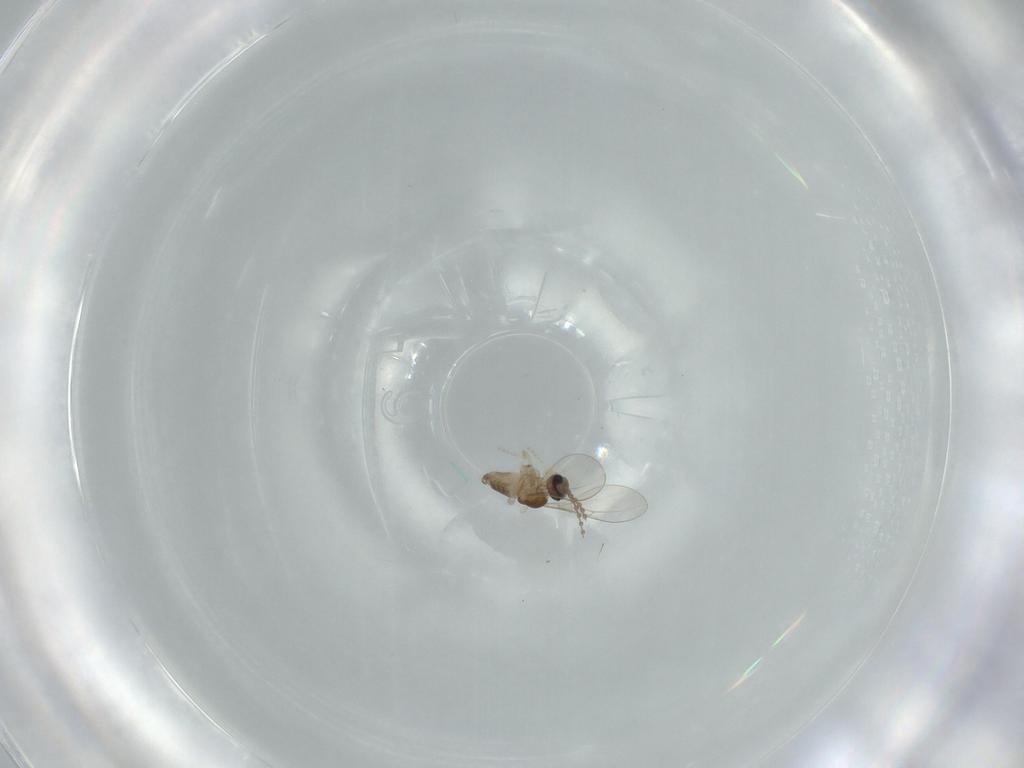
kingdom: Animalia
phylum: Arthropoda
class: Insecta
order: Diptera
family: Cecidomyiidae
